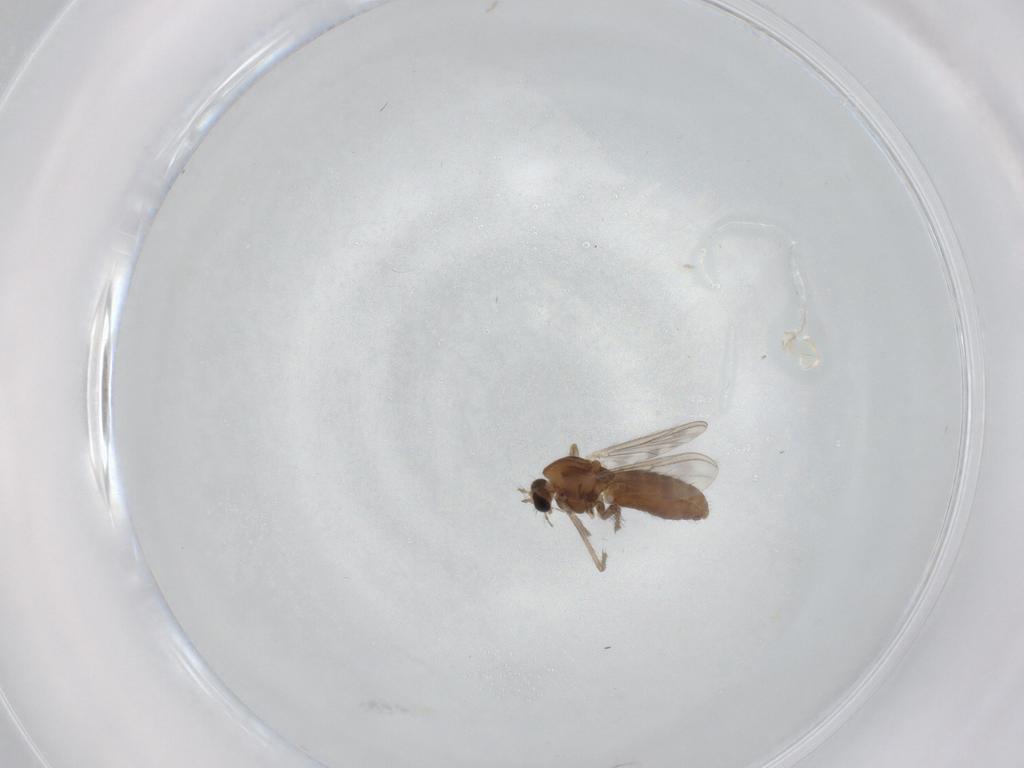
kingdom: Animalia
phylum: Arthropoda
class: Insecta
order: Diptera
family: Chironomidae
